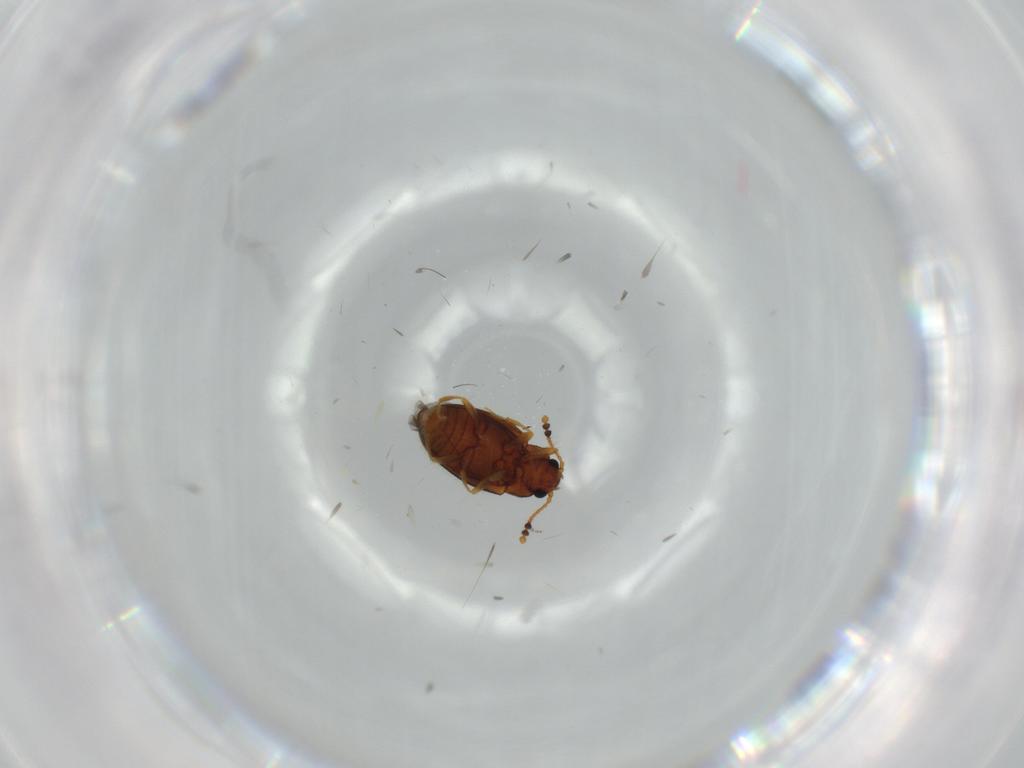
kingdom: Animalia
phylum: Arthropoda
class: Insecta
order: Coleoptera
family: Erotylidae
